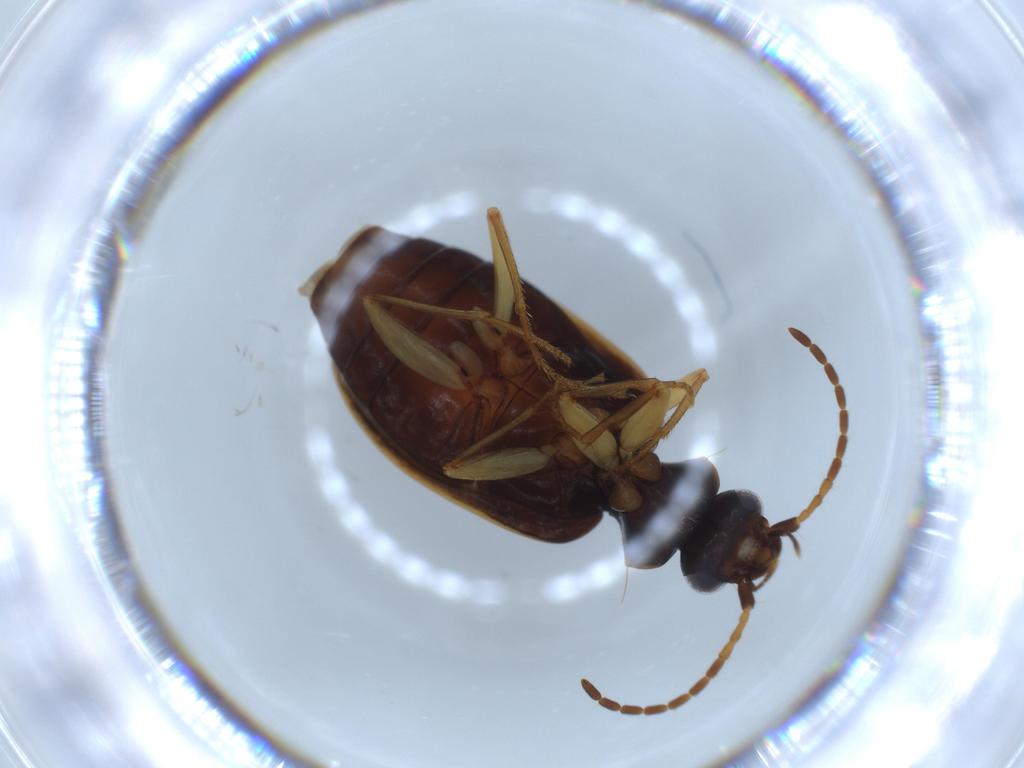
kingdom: Animalia
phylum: Arthropoda
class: Insecta
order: Coleoptera
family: Carabidae
